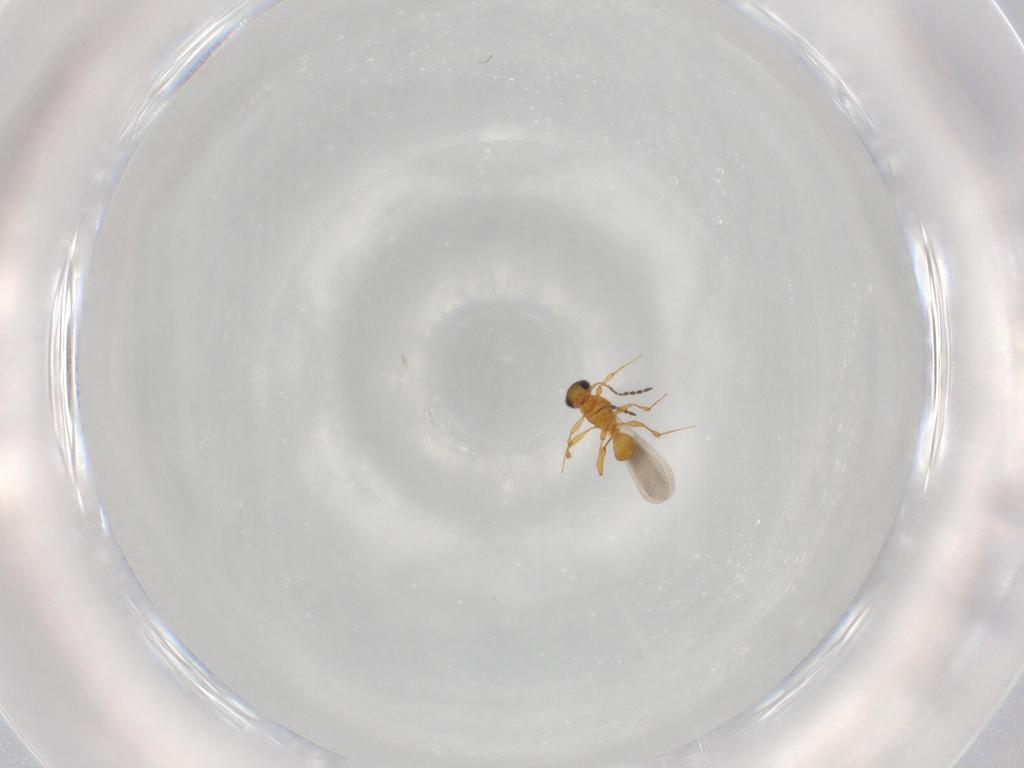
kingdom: Animalia
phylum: Arthropoda
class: Insecta
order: Hymenoptera
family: Platygastridae
